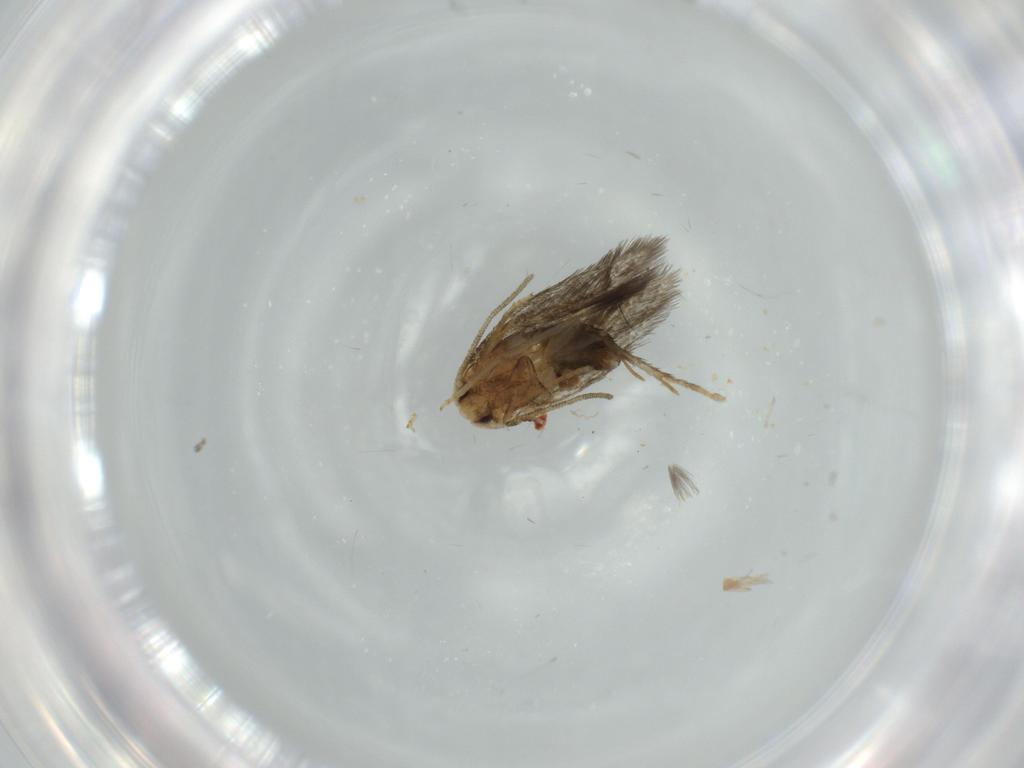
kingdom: Animalia
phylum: Arthropoda
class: Insecta
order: Lepidoptera
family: Nepticulidae
